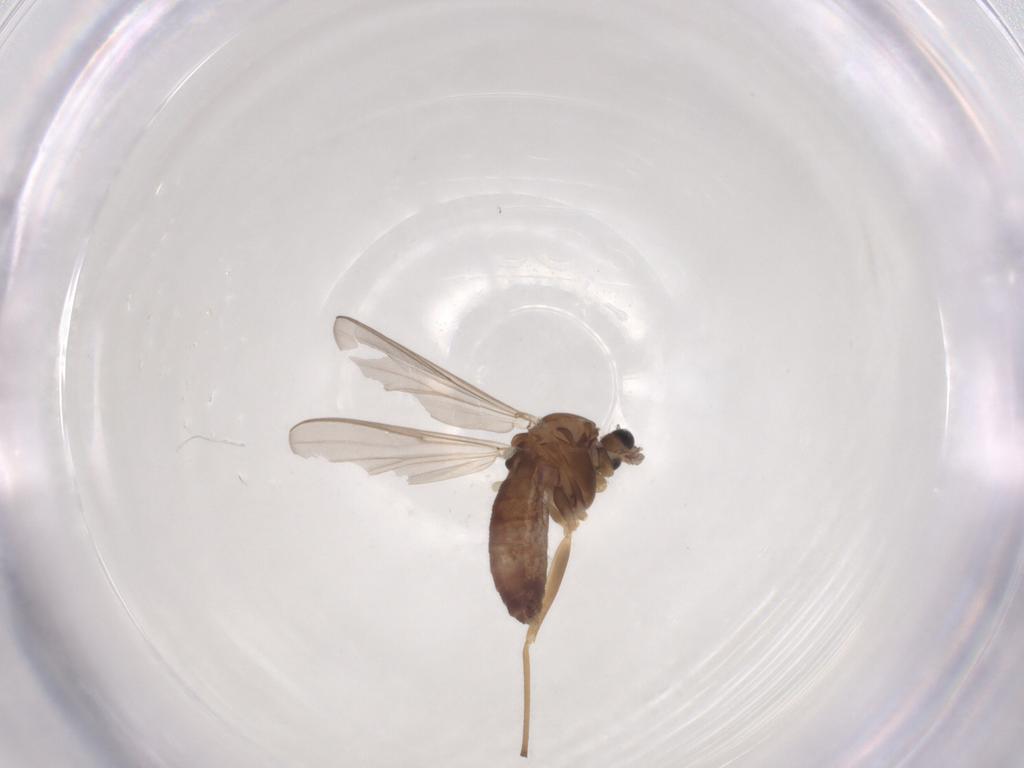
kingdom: Animalia
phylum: Arthropoda
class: Insecta
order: Diptera
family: Chironomidae
